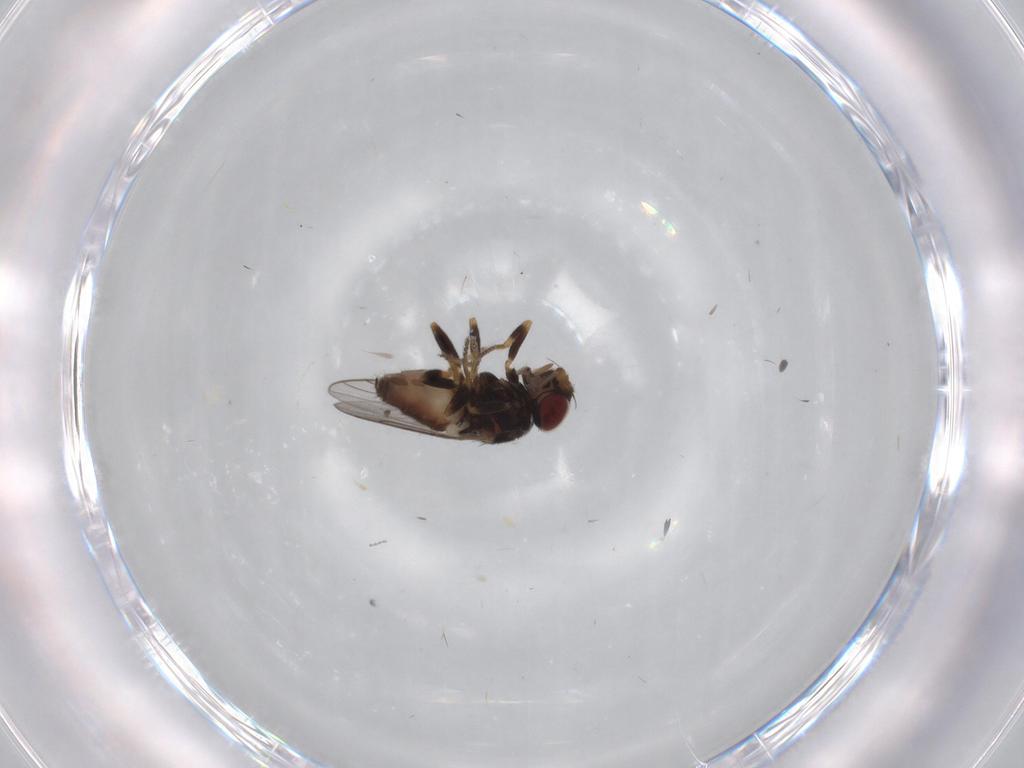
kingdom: Animalia
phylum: Arthropoda
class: Insecta
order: Diptera
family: Chloropidae
